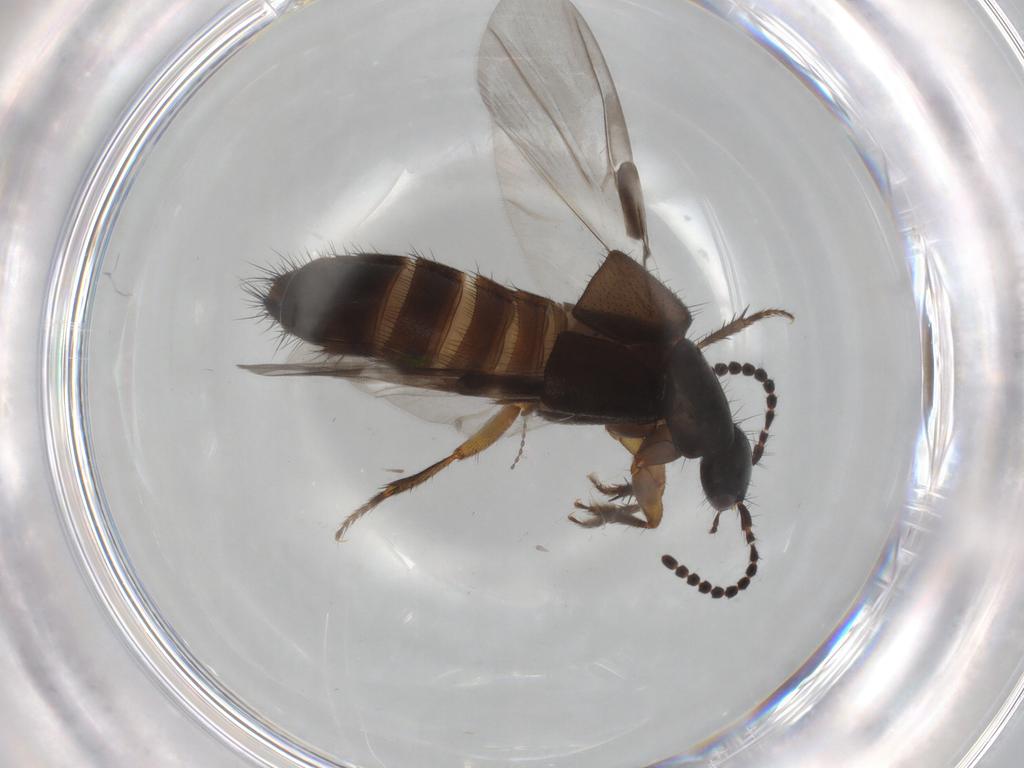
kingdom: Animalia
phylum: Arthropoda
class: Insecta
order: Coleoptera
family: Staphylinidae
